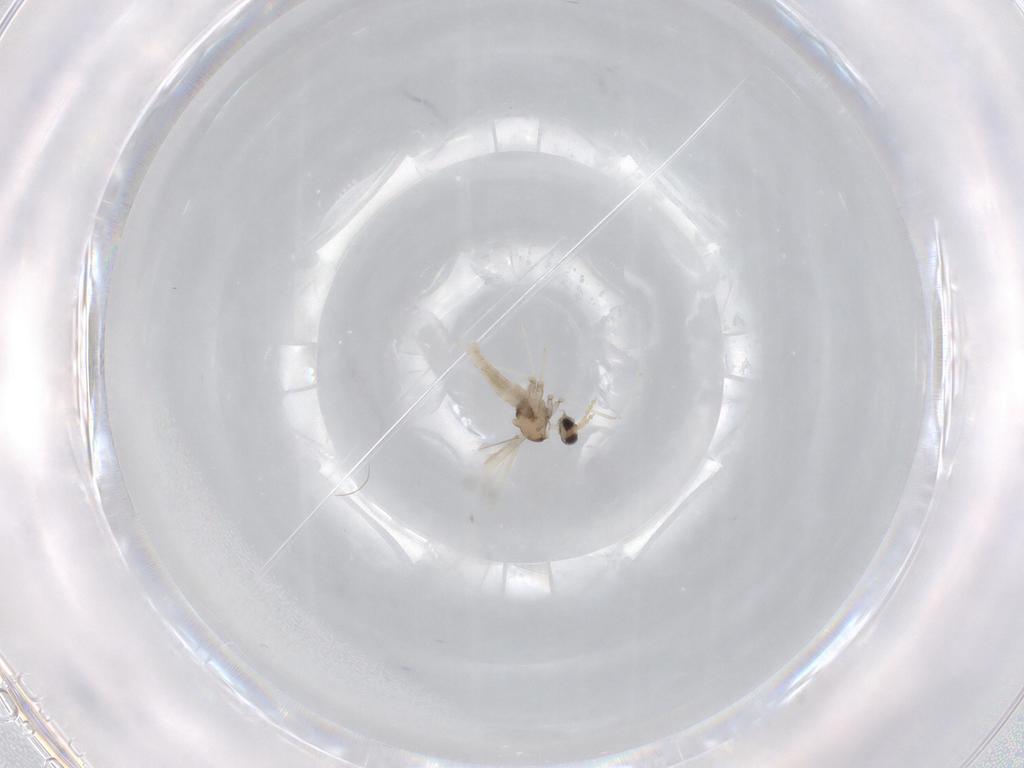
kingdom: Animalia
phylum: Arthropoda
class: Insecta
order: Diptera
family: Cecidomyiidae
